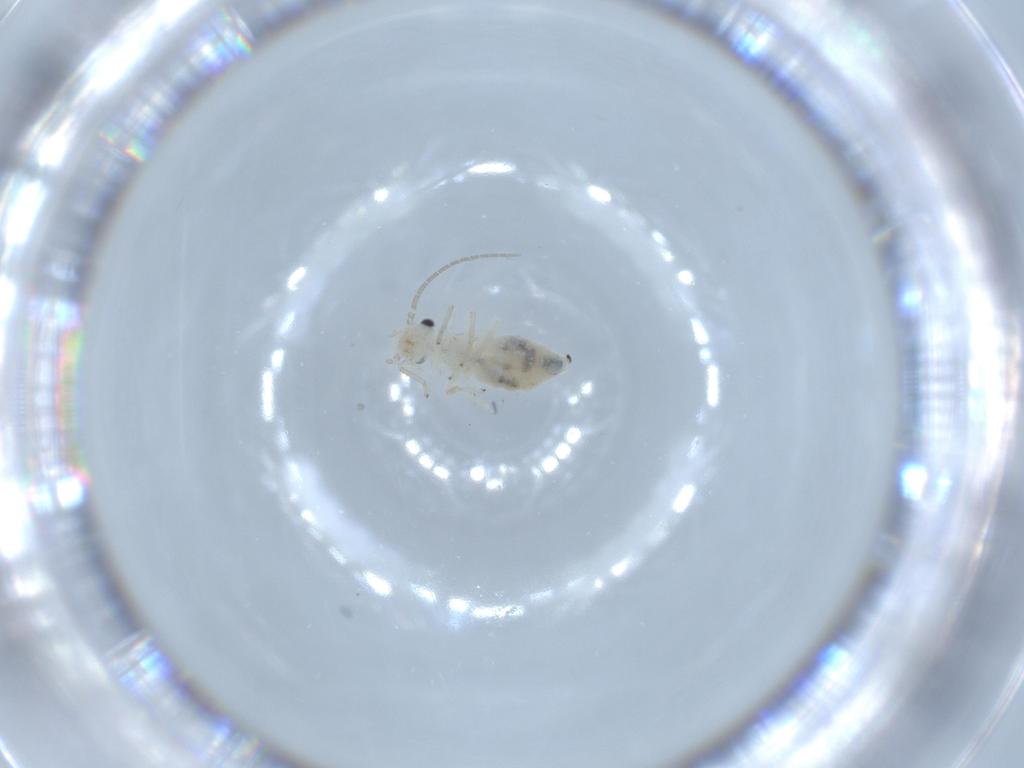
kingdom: Animalia
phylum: Arthropoda
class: Insecta
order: Psocodea
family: Caeciliusidae
